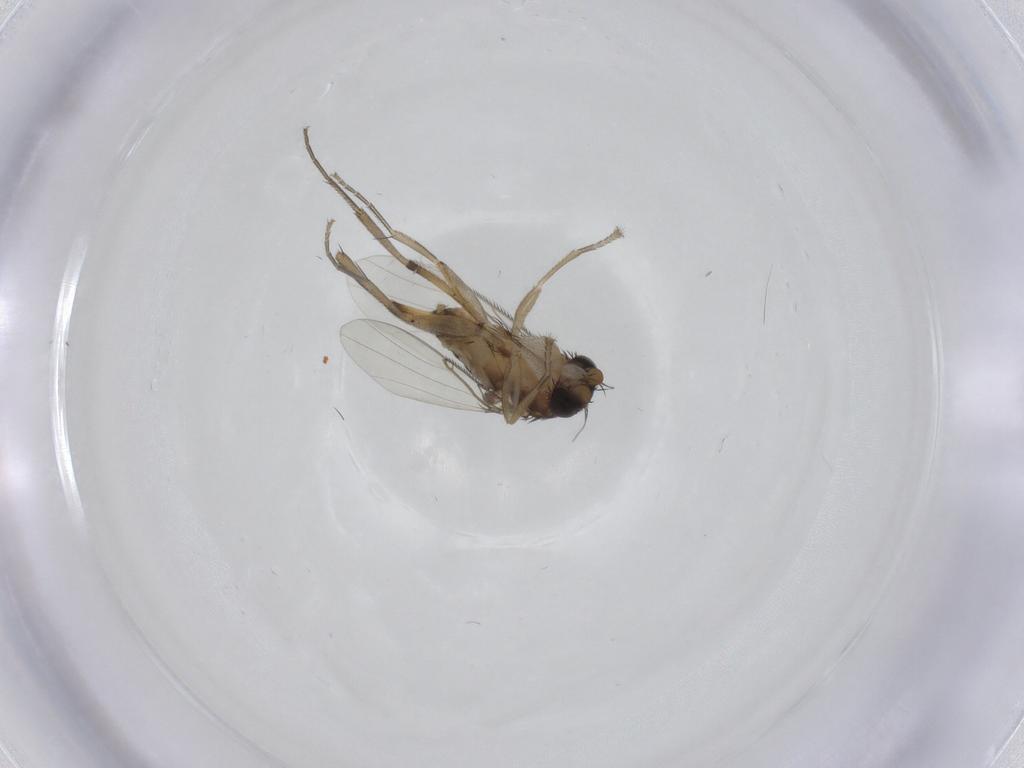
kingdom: Animalia
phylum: Arthropoda
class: Insecta
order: Diptera
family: Phoridae
